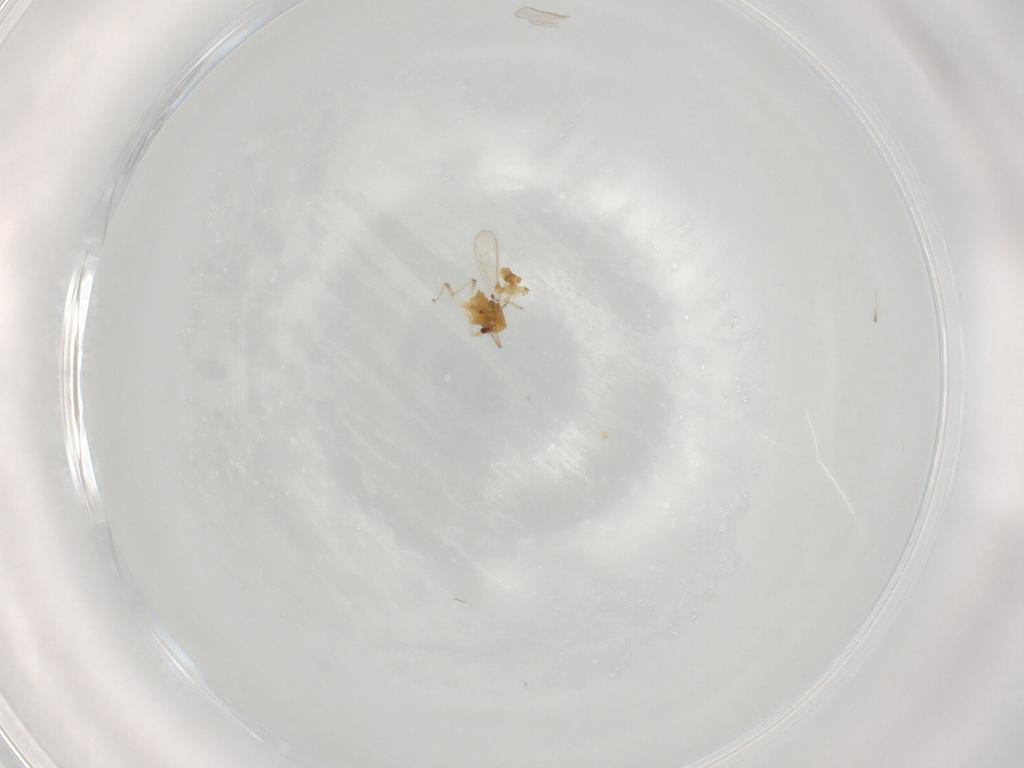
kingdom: Animalia
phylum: Arthropoda
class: Insecta
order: Diptera
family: Chironomidae
